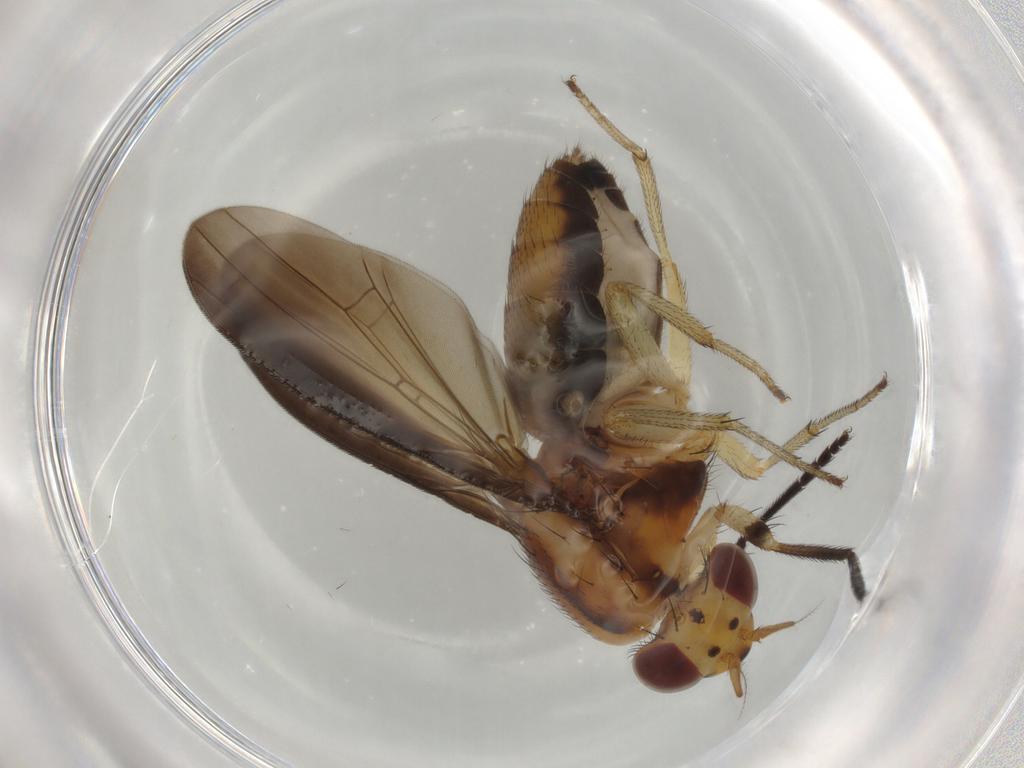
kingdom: Animalia
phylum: Arthropoda
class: Insecta
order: Diptera
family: Lauxaniidae
